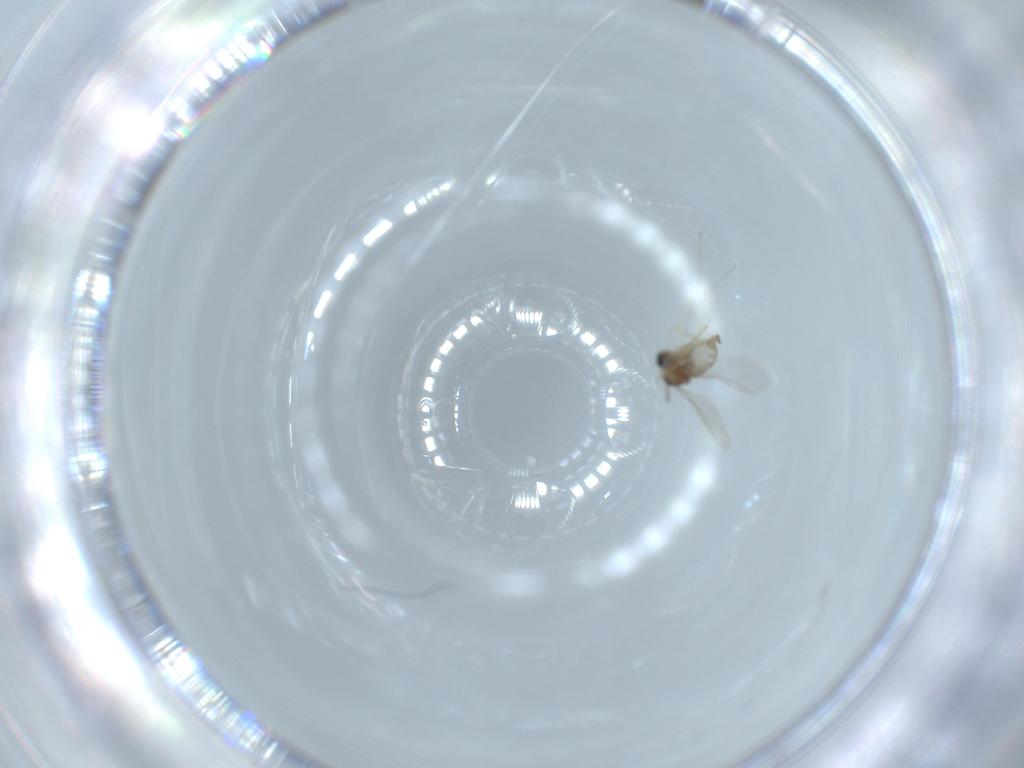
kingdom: Animalia
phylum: Arthropoda
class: Insecta
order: Diptera
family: Cecidomyiidae
